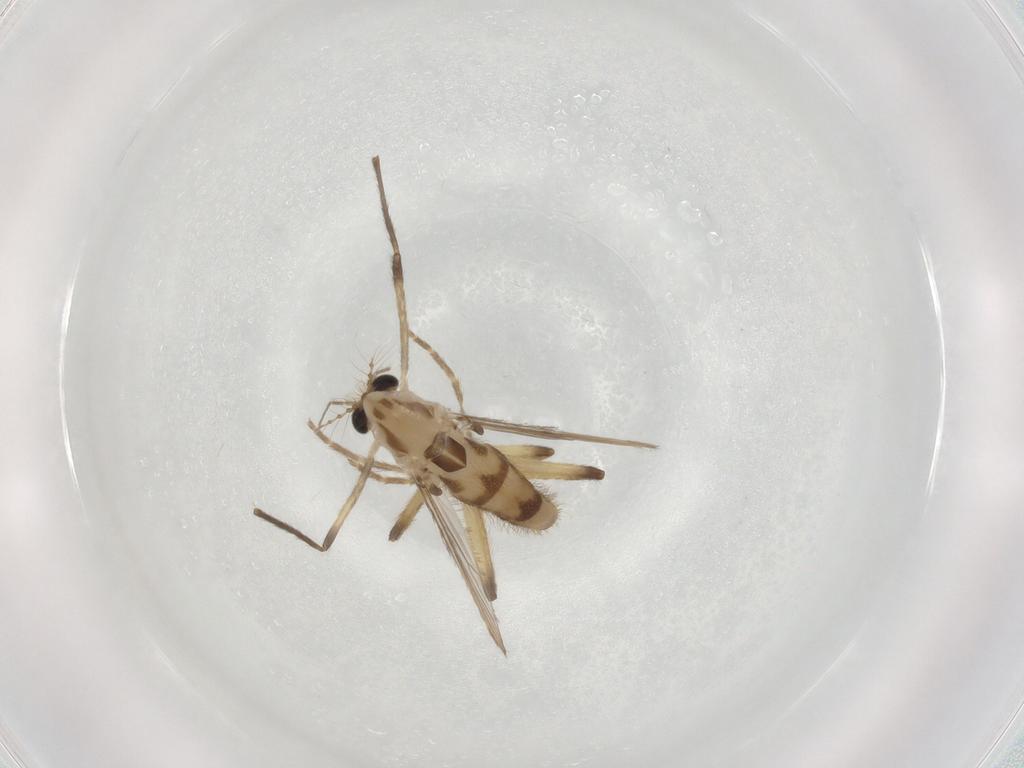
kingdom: Animalia
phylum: Arthropoda
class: Insecta
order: Diptera
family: Chironomidae
